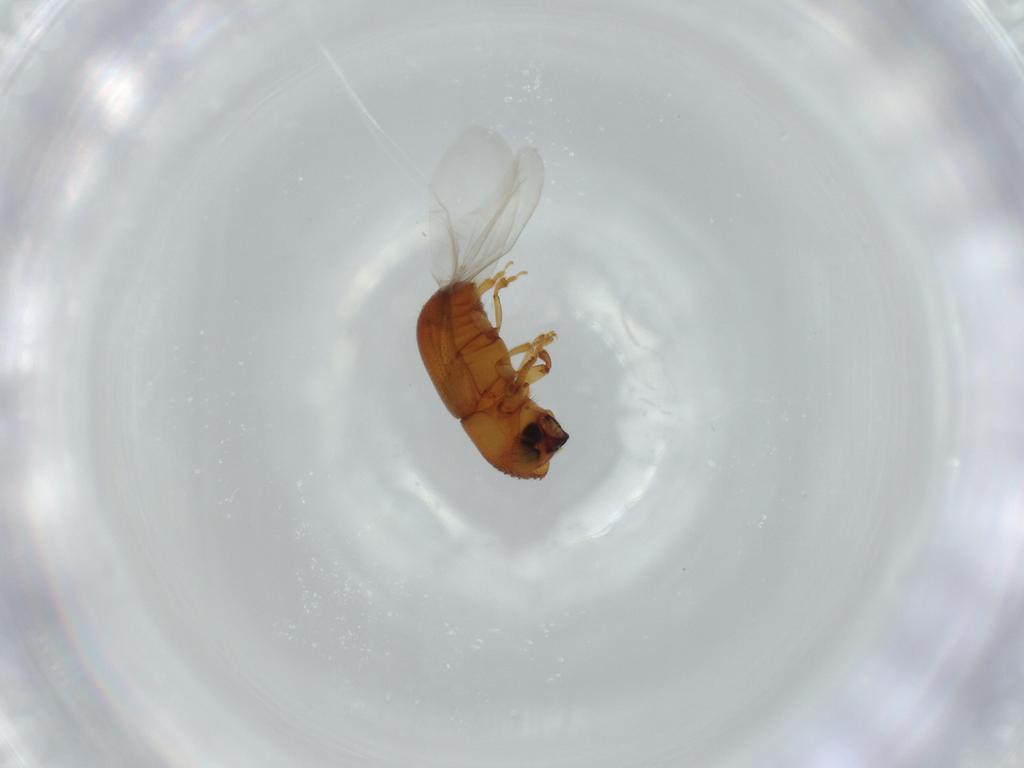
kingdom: Animalia
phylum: Arthropoda
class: Insecta
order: Coleoptera
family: Curculionidae
